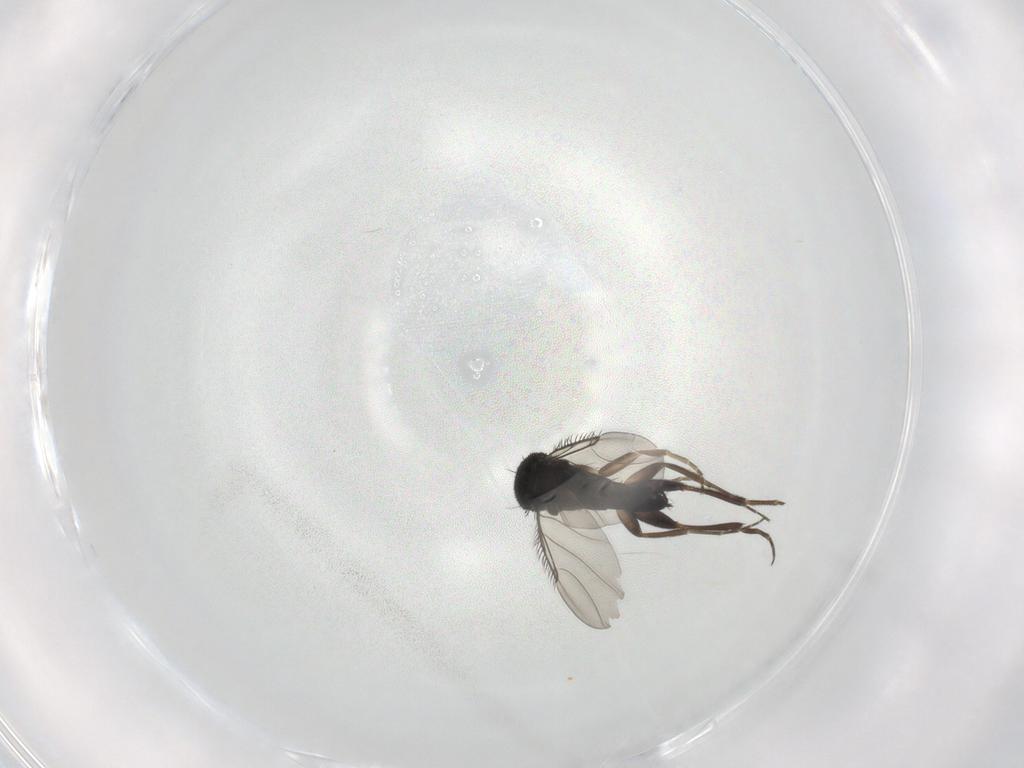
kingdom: Animalia
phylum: Arthropoda
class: Insecta
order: Diptera
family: Phoridae
